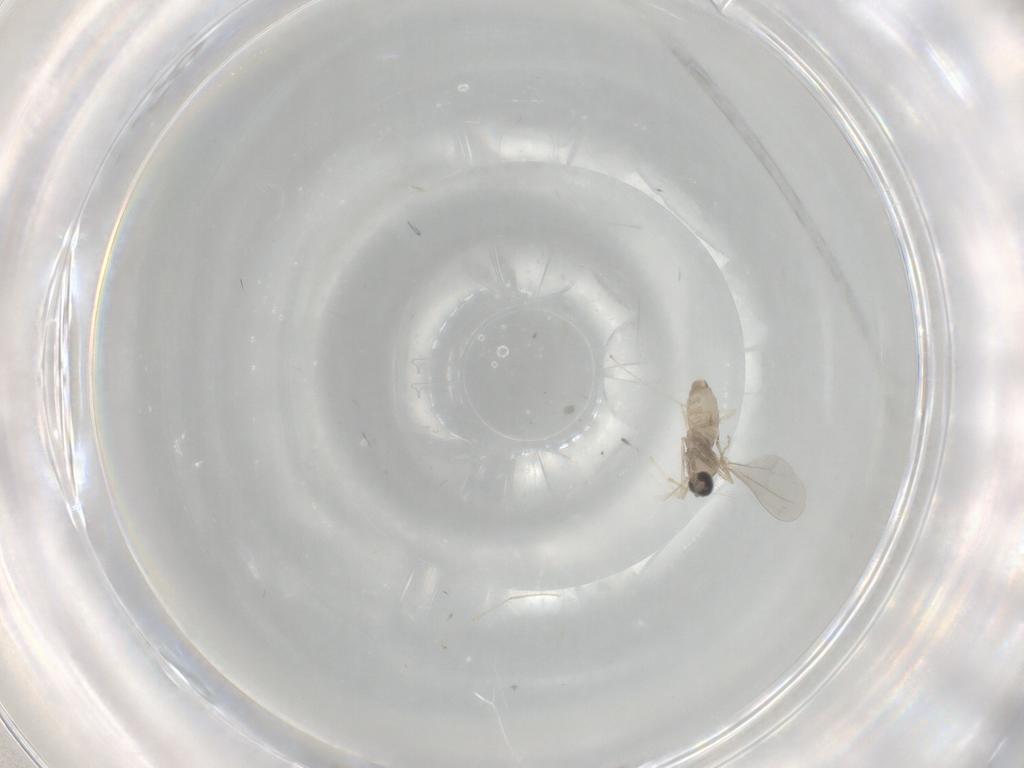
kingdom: Animalia
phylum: Arthropoda
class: Insecta
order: Diptera
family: Cecidomyiidae
